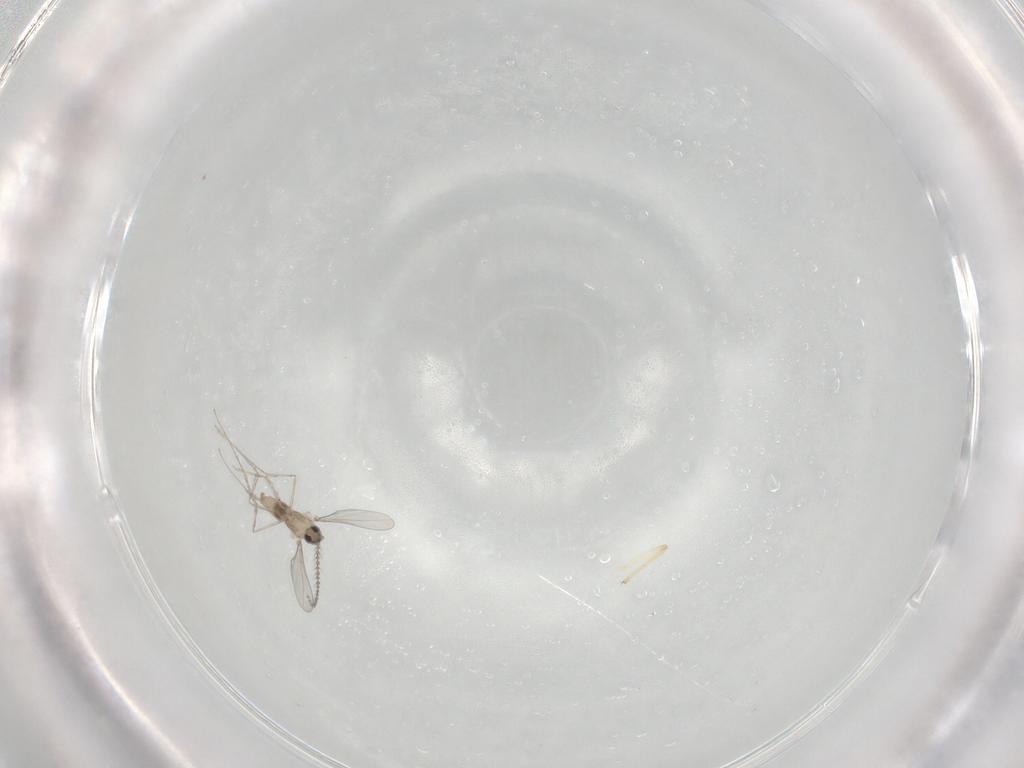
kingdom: Animalia
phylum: Arthropoda
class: Insecta
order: Diptera
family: Cecidomyiidae
